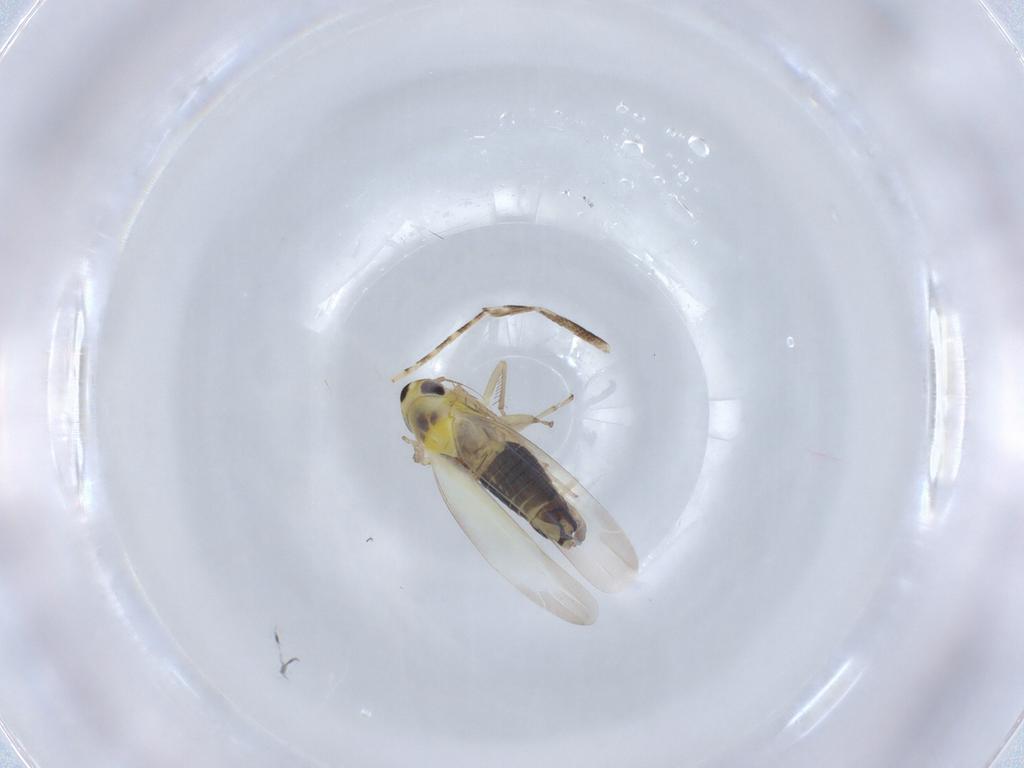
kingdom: Animalia
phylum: Arthropoda
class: Insecta
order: Hemiptera
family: Cicadellidae
